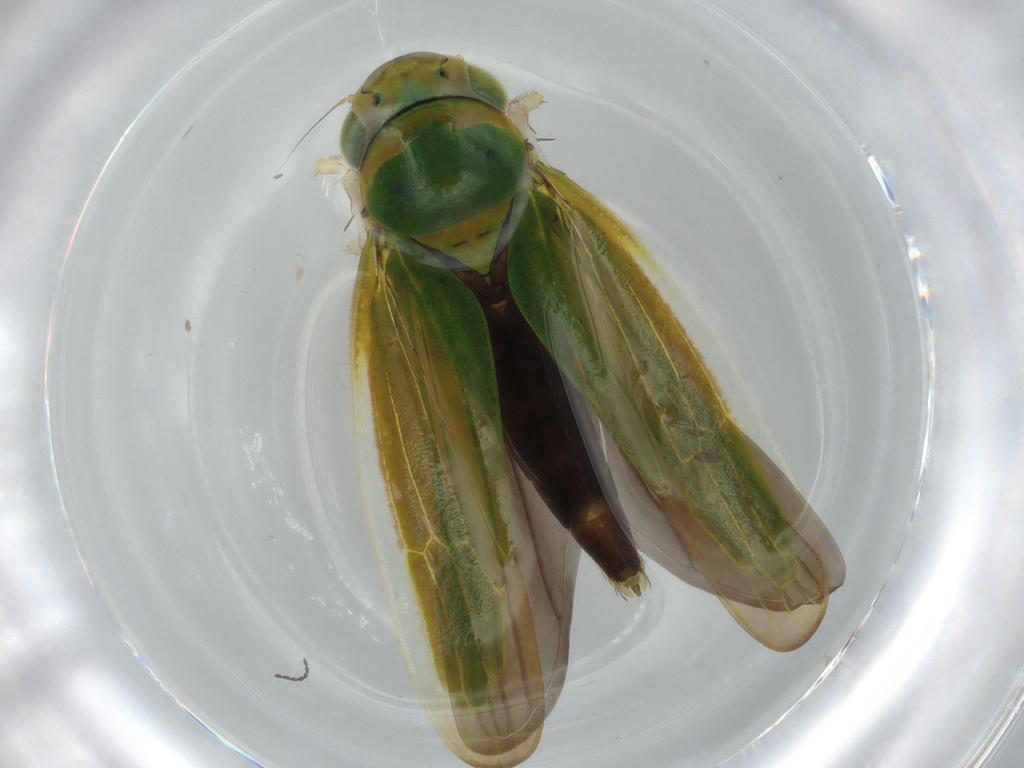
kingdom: Animalia
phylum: Arthropoda
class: Insecta
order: Hemiptera
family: Cicadellidae
